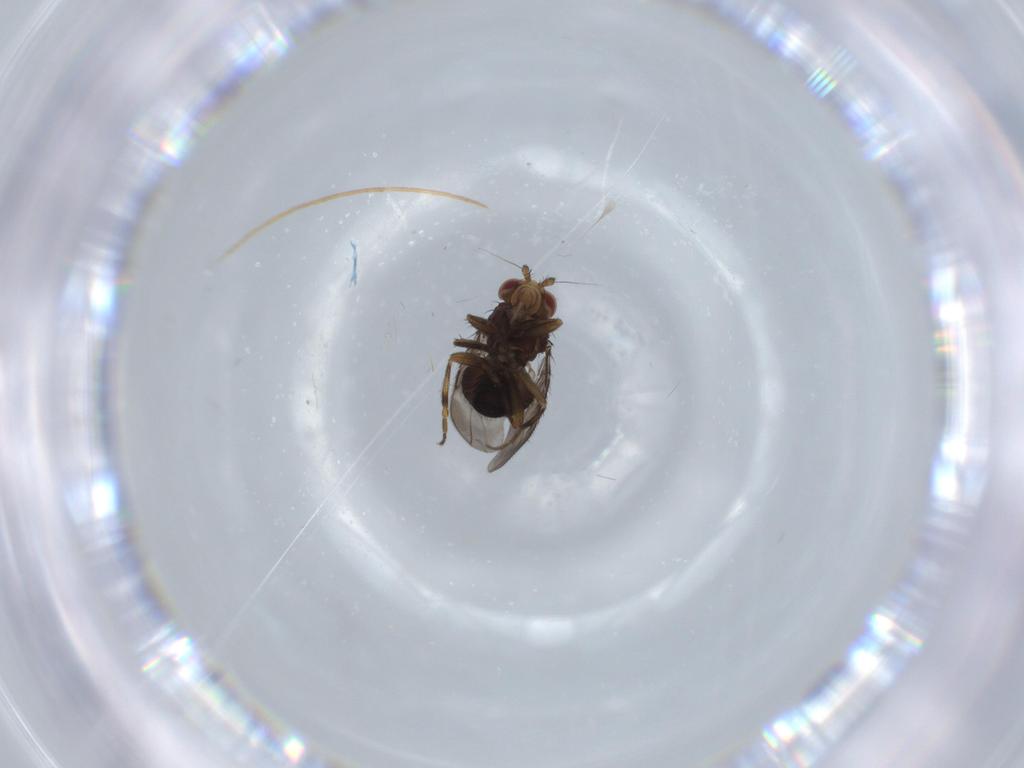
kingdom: Animalia
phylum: Arthropoda
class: Insecta
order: Diptera
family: Sphaeroceridae
